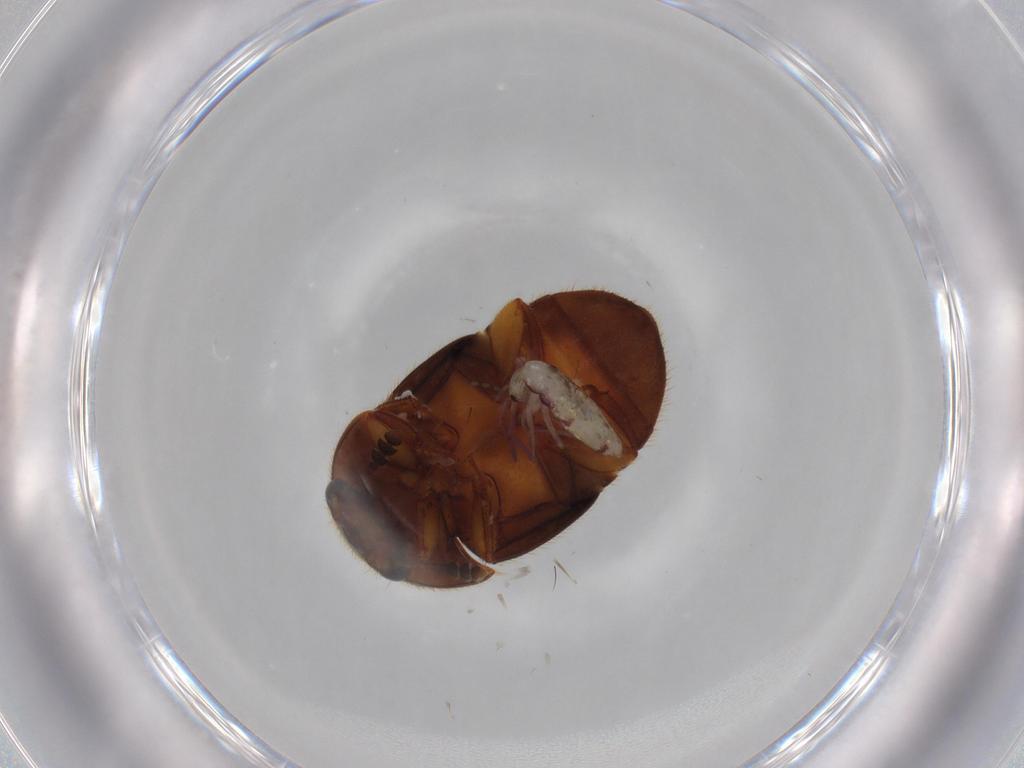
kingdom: Animalia
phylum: Arthropoda
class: Insecta
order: Coleoptera
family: Nitidulidae
